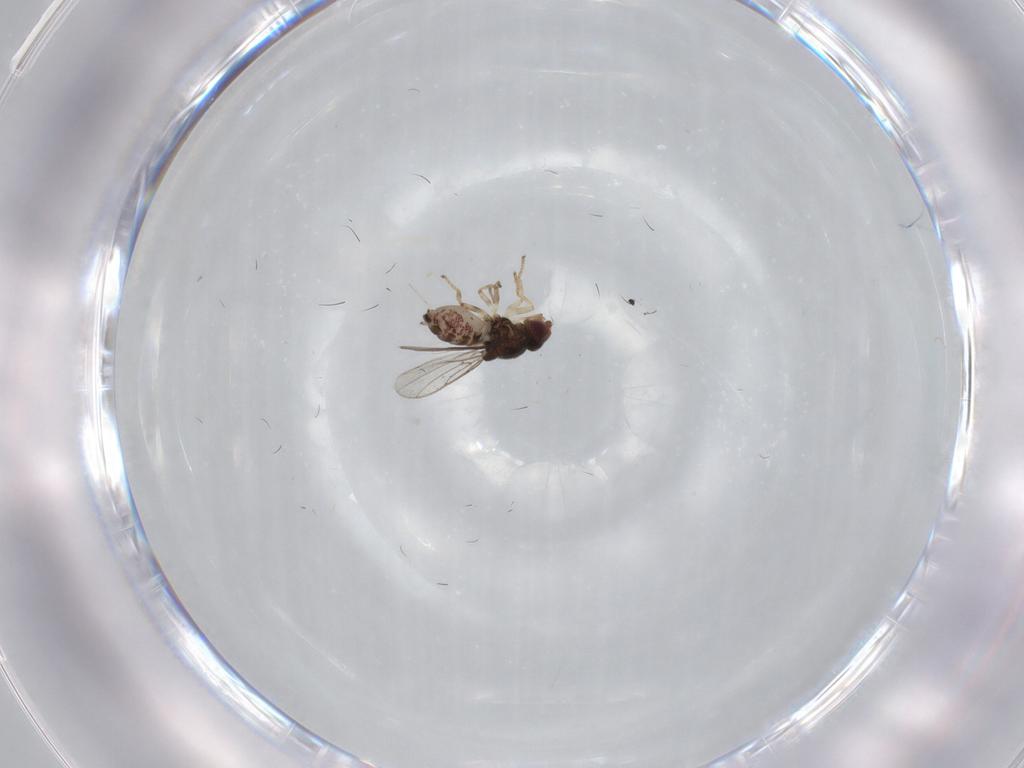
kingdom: Animalia
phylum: Arthropoda
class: Insecta
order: Diptera
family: Chloropidae
